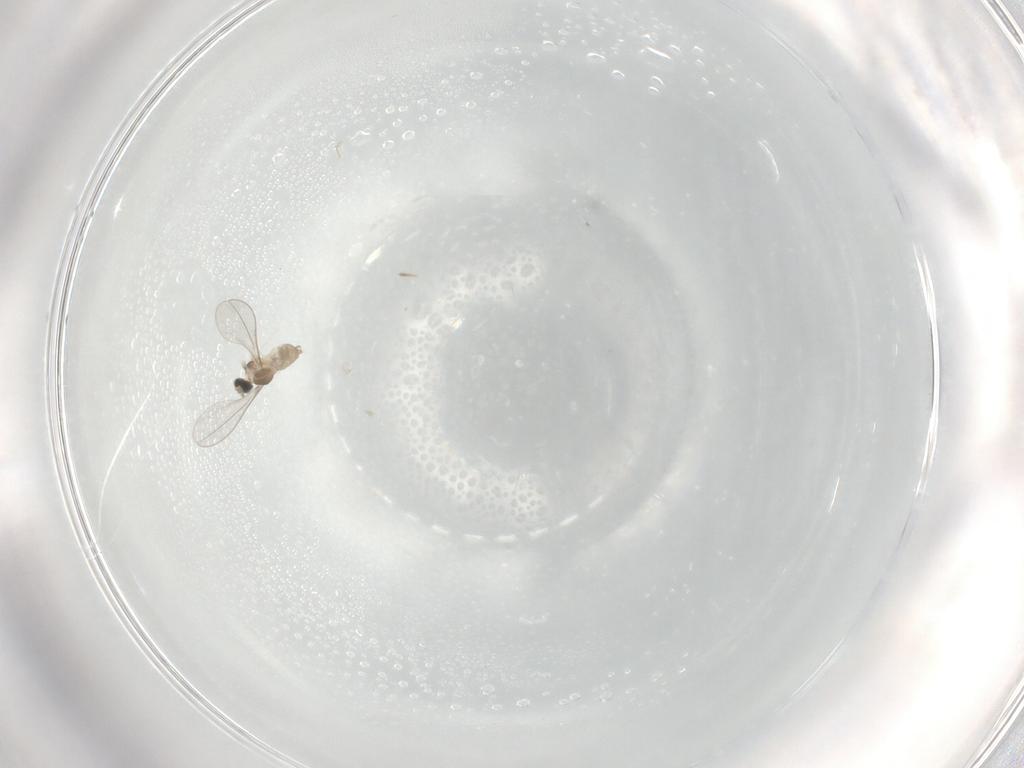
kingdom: Animalia
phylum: Arthropoda
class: Insecta
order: Diptera
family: Cecidomyiidae
